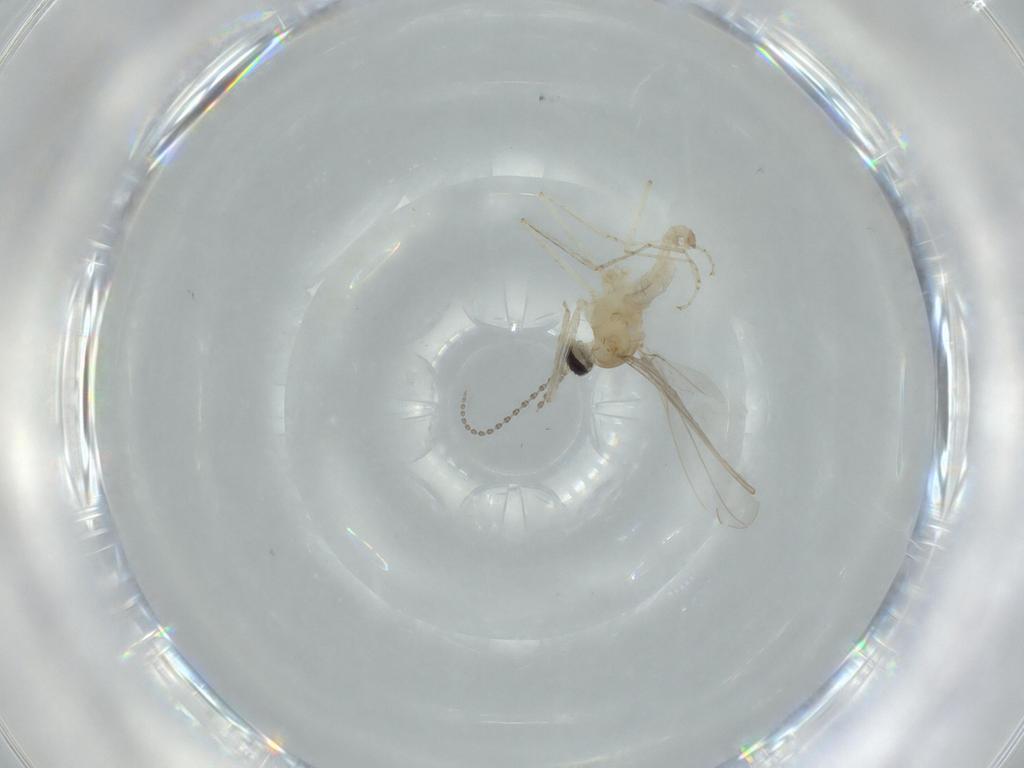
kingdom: Animalia
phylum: Arthropoda
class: Insecta
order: Diptera
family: Cecidomyiidae
